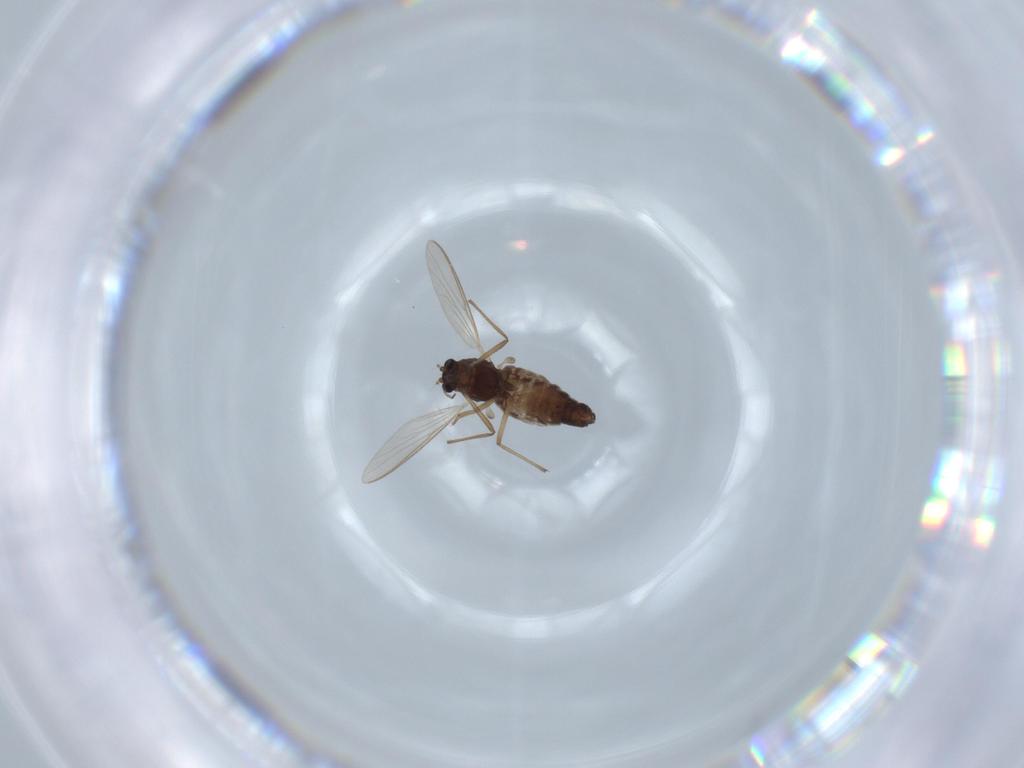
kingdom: Animalia
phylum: Arthropoda
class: Insecta
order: Diptera
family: Chironomidae
